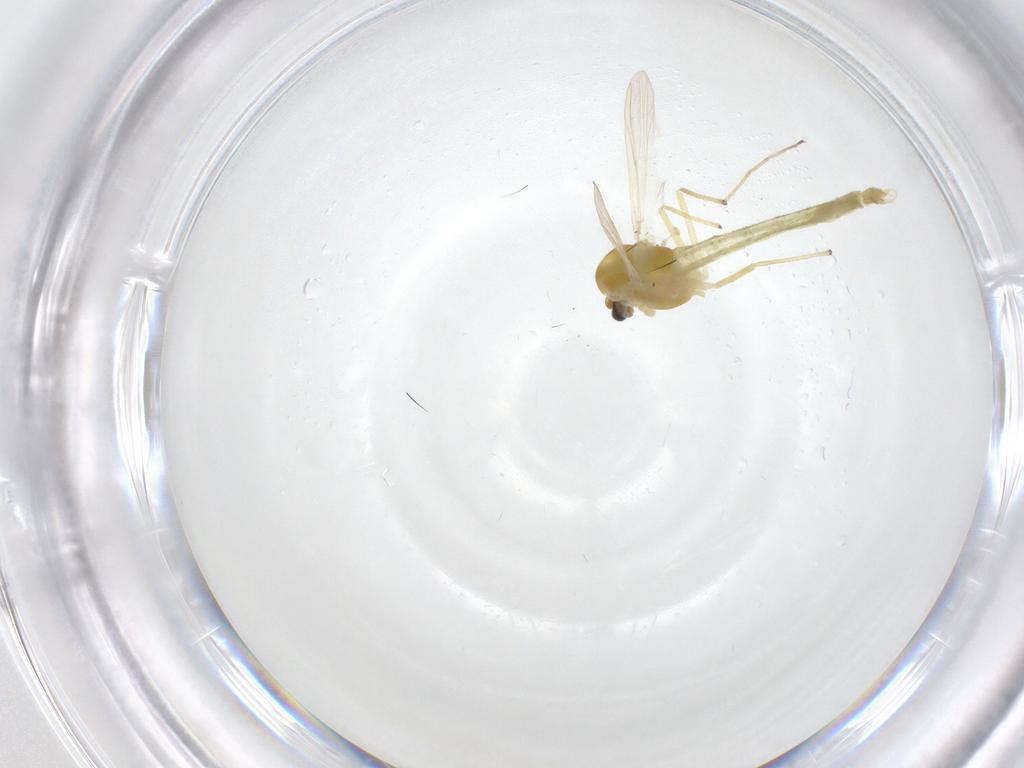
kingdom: Animalia
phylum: Arthropoda
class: Insecta
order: Diptera
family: Chironomidae
